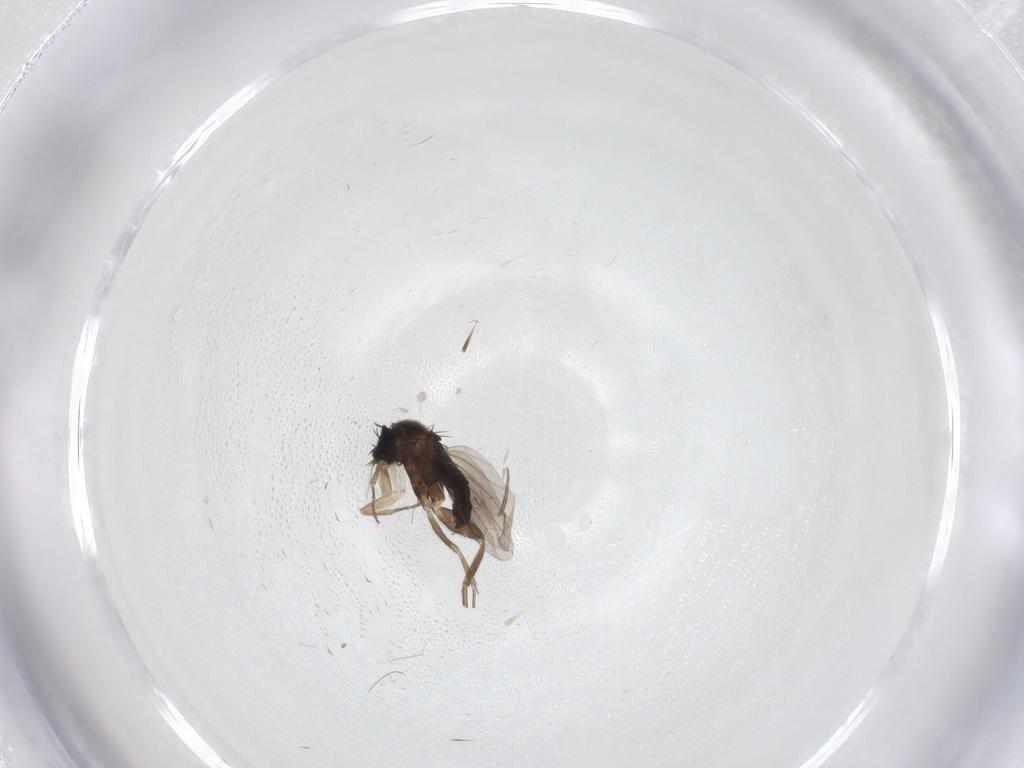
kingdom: Animalia
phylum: Arthropoda
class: Insecta
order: Diptera
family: Phoridae
